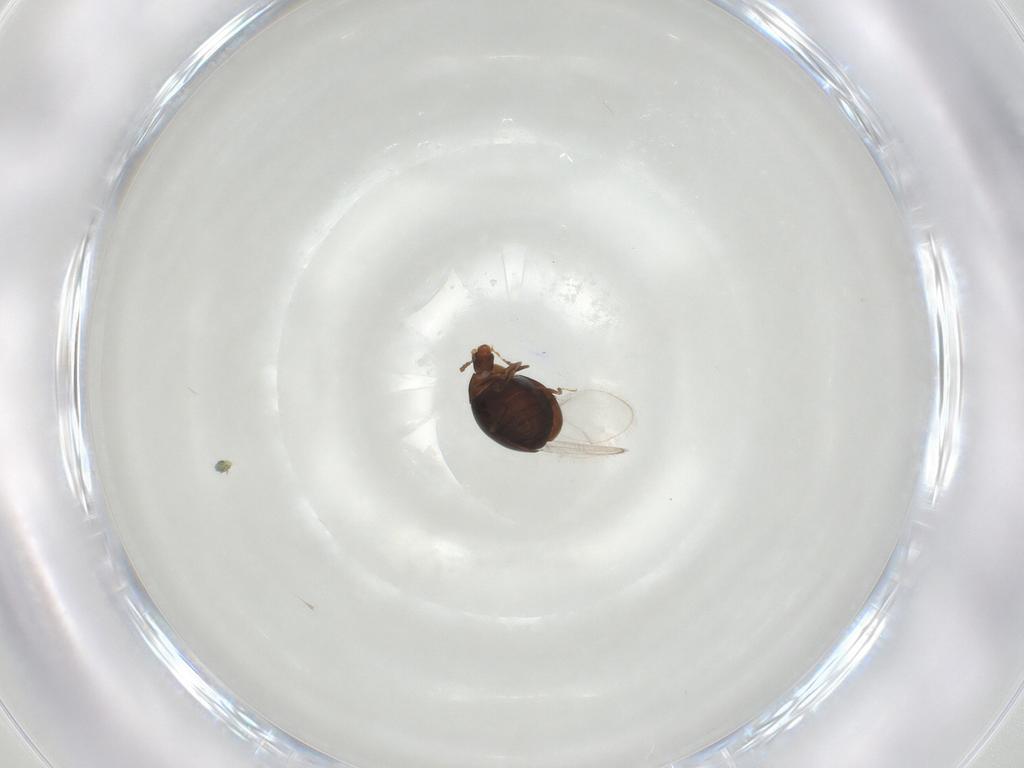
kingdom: Animalia
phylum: Arthropoda
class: Insecta
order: Coleoptera
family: Corylophidae
